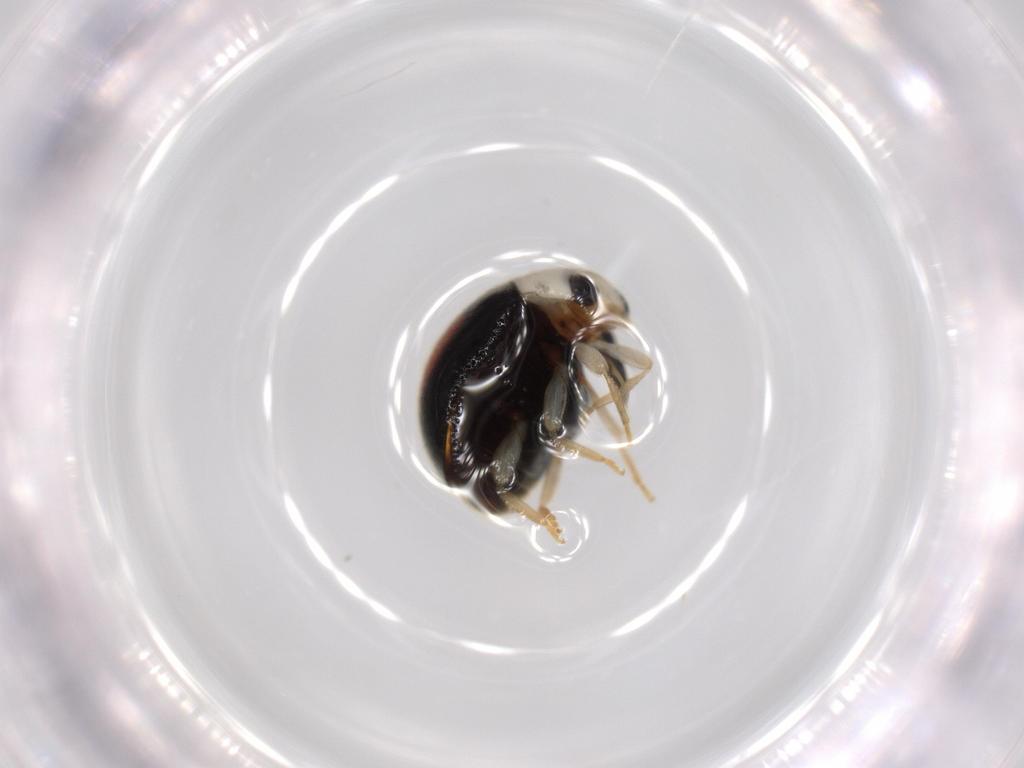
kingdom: Animalia
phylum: Arthropoda
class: Insecta
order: Coleoptera
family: Coccinellidae
